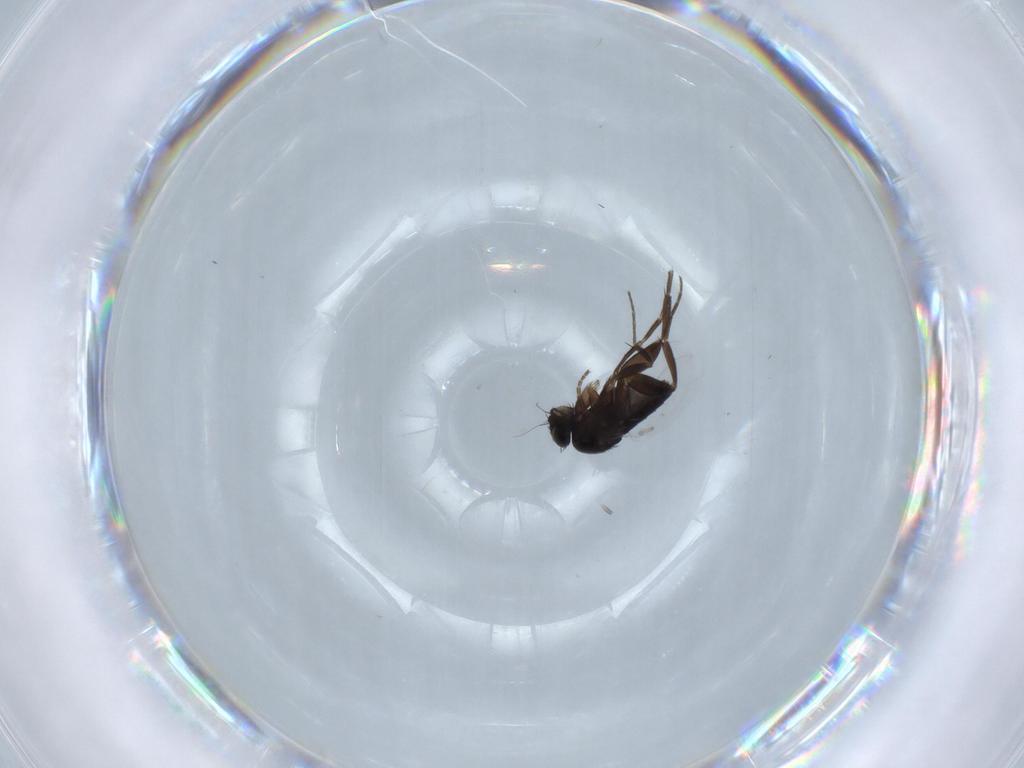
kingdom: Animalia
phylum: Arthropoda
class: Insecta
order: Diptera
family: Phoridae
